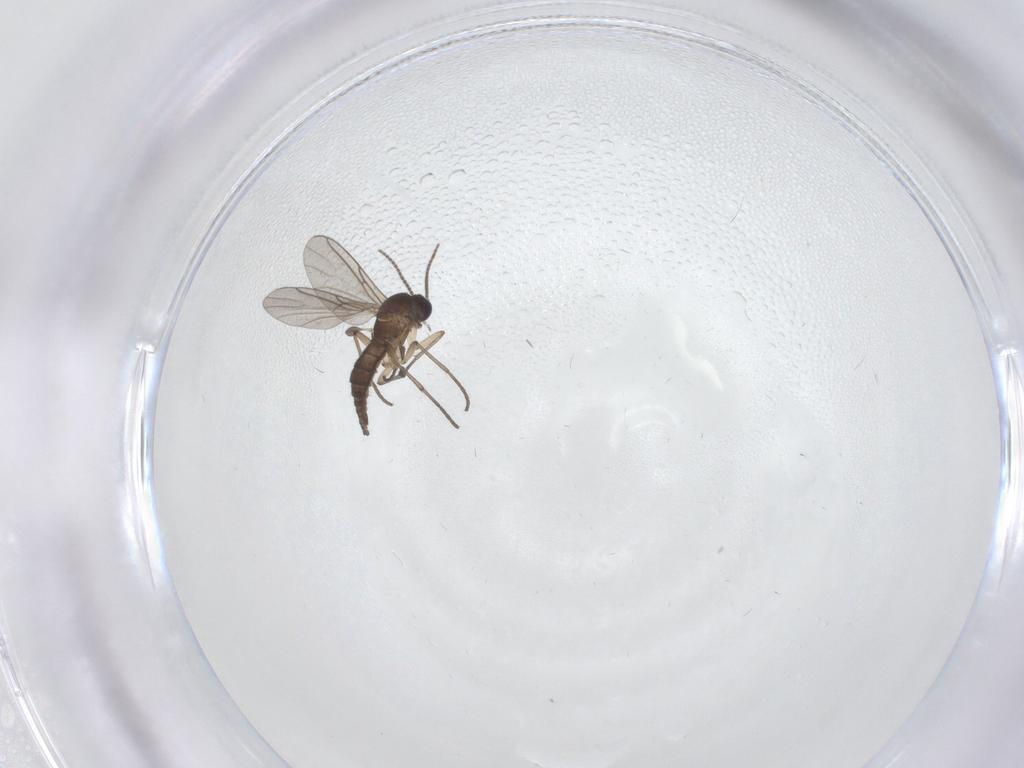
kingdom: Animalia
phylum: Arthropoda
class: Insecta
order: Diptera
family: Sciaridae
